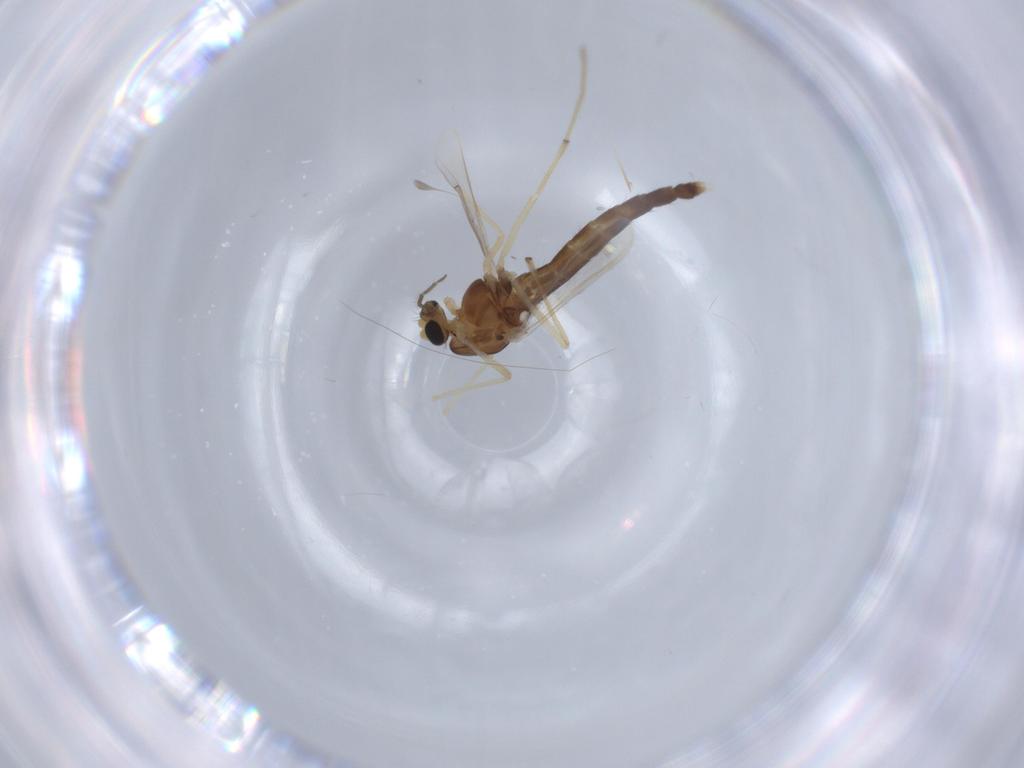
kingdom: Animalia
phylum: Arthropoda
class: Insecta
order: Diptera
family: Chironomidae
